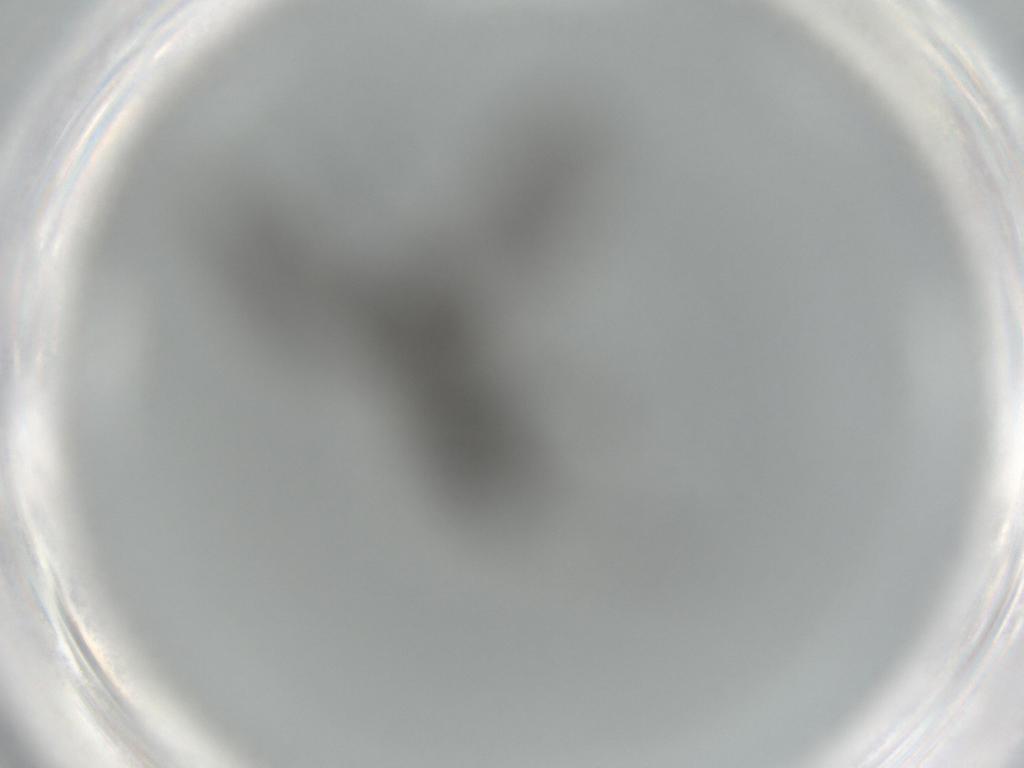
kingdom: Animalia
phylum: Arthropoda
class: Insecta
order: Diptera
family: Sciaridae
